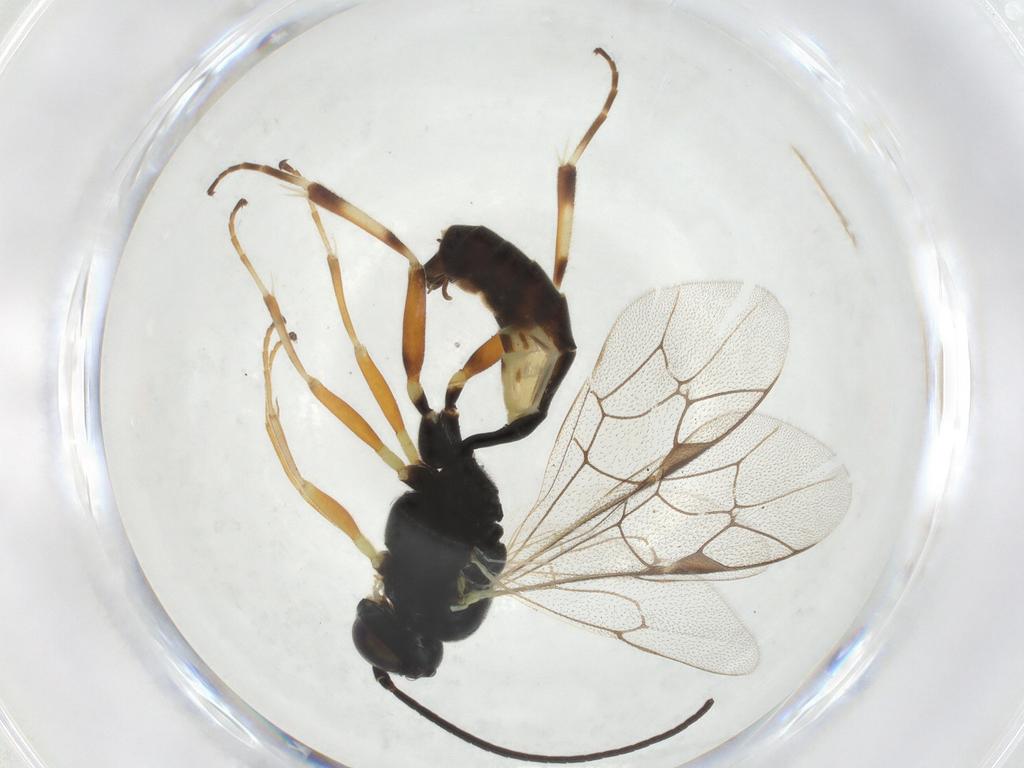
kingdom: Animalia
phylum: Arthropoda
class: Insecta
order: Hymenoptera
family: Ichneumonidae
